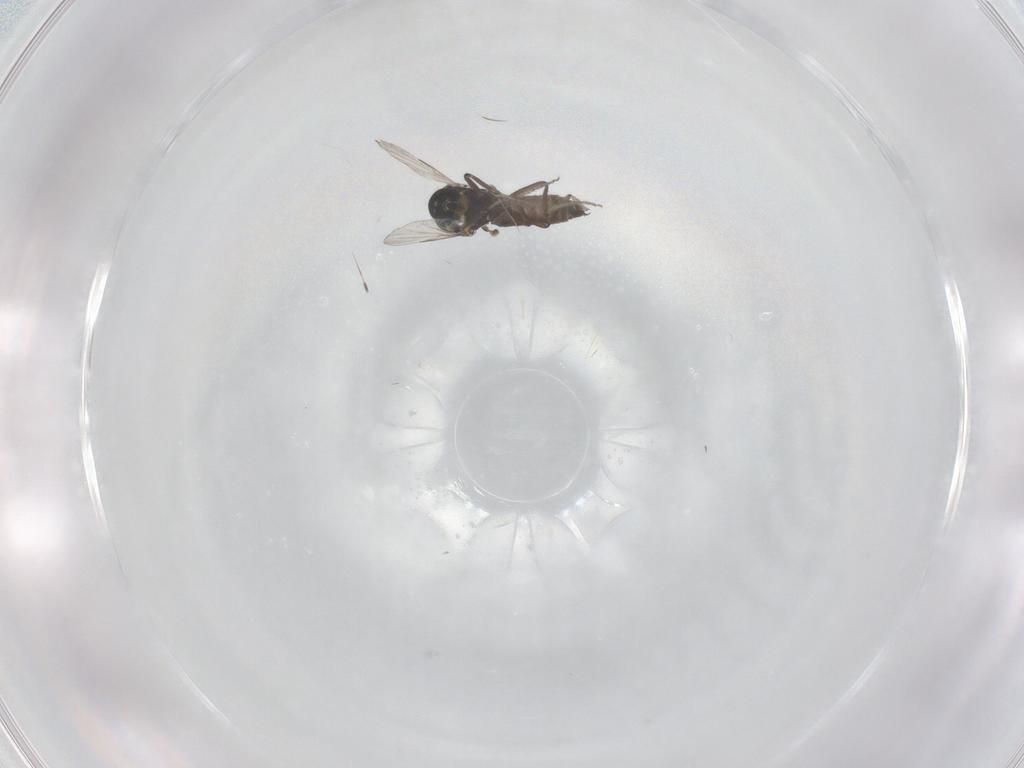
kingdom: Animalia
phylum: Arthropoda
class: Insecta
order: Diptera
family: Ceratopogonidae
